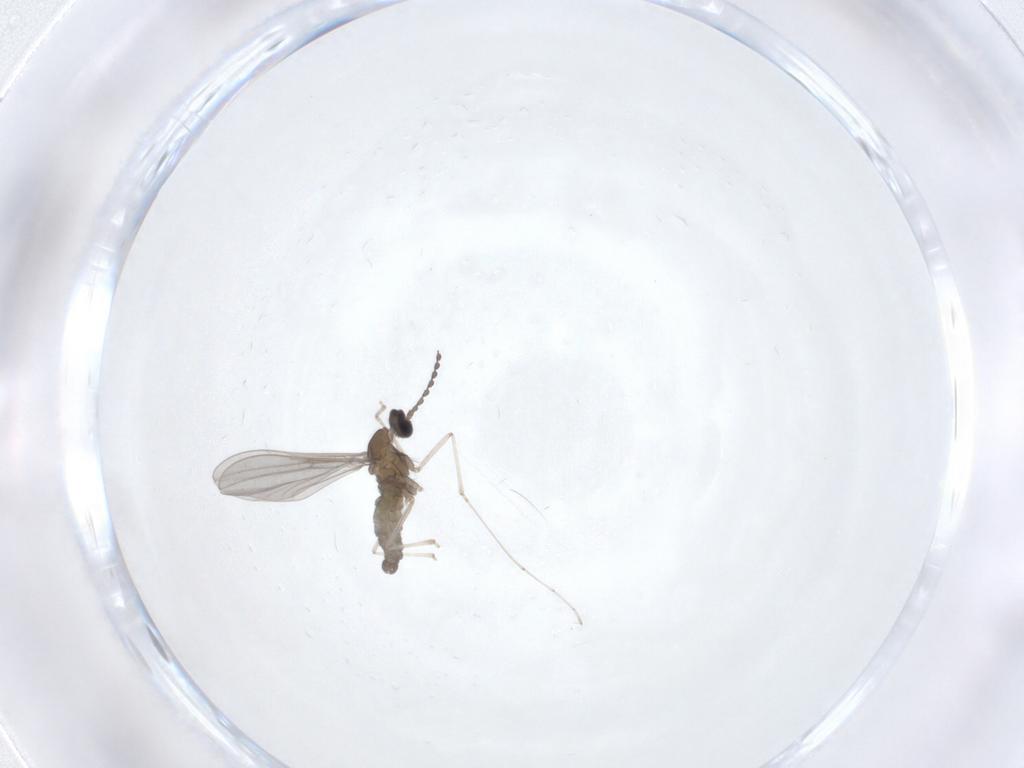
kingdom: Animalia
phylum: Arthropoda
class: Insecta
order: Diptera
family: Cecidomyiidae
